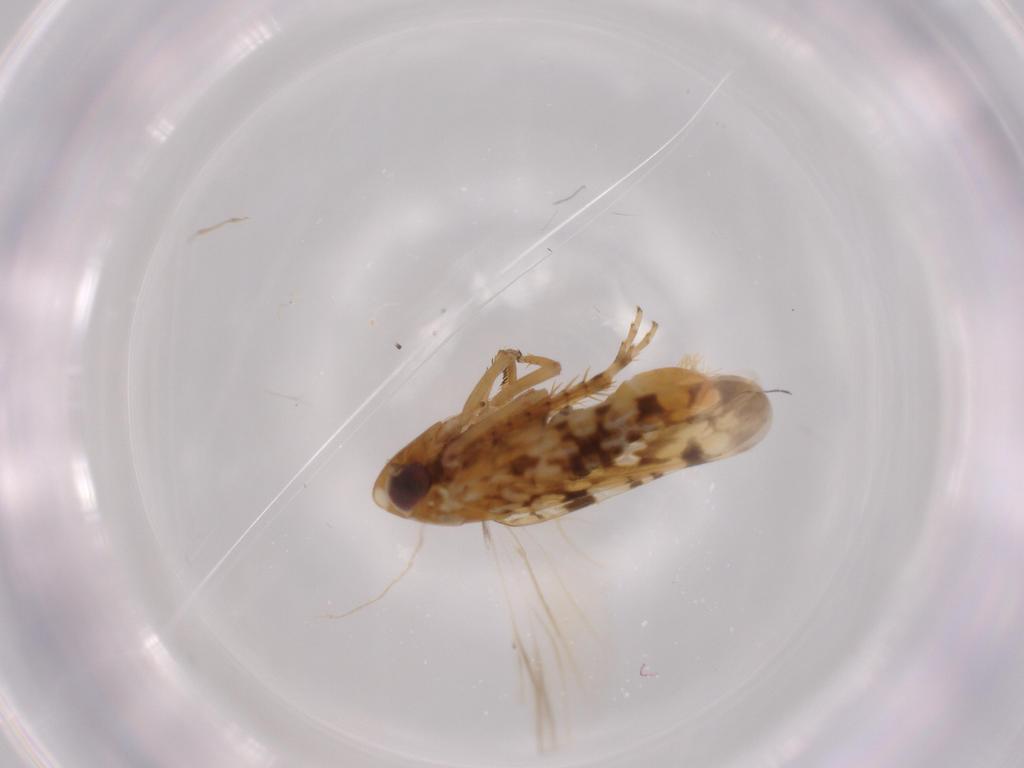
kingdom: Animalia
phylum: Arthropoda
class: Insecta
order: Hemiptera
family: Cicadellidae
